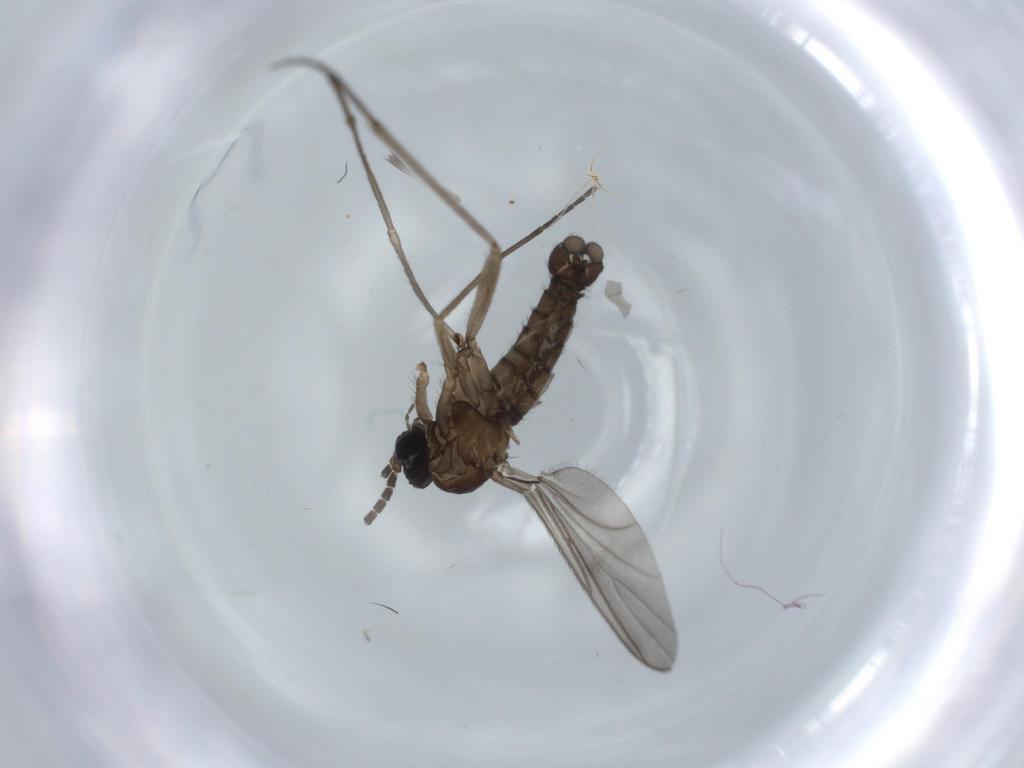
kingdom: Animalia
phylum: Arthropoda
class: Insecta
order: Diptera
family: Sciaridae
